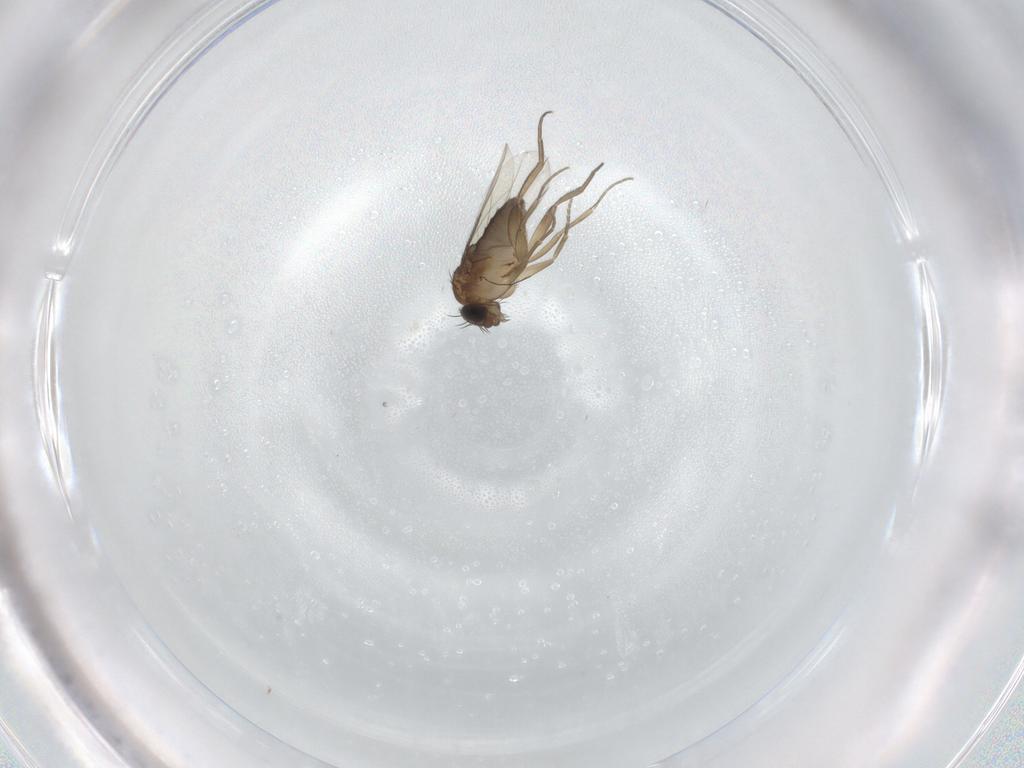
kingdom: Animalia
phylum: Arthropoda
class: Insecta
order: Diptera
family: Phoridae
